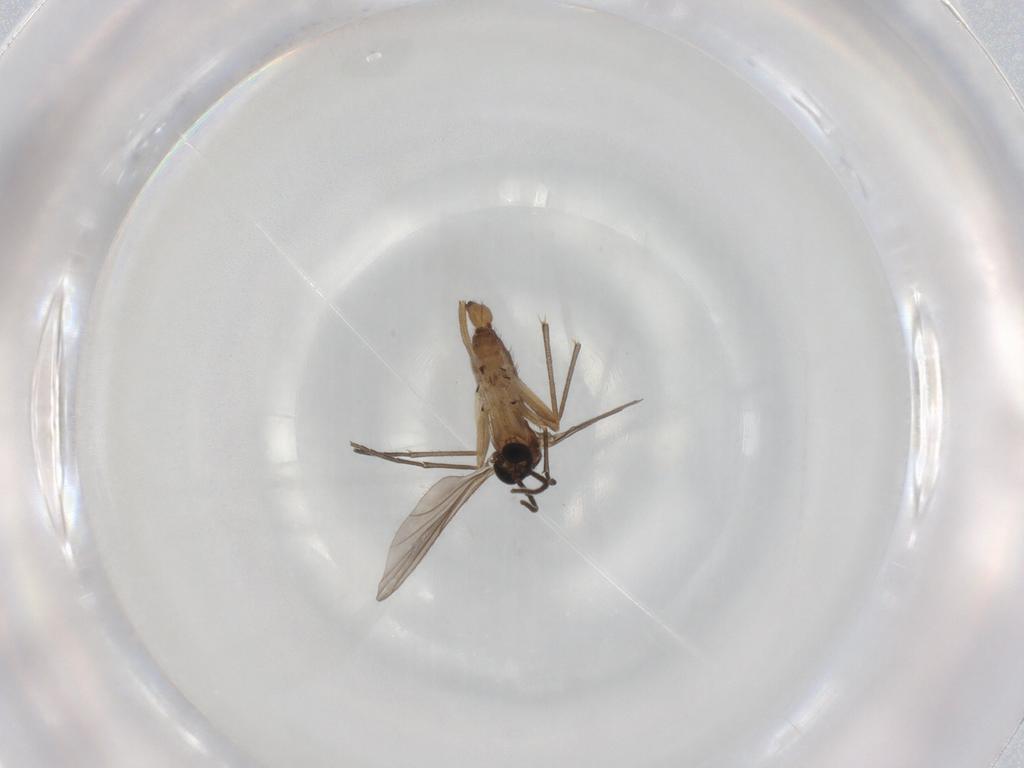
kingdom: Animalia
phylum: Arthropoda
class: Insecta
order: Diptera
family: Sciaridae
